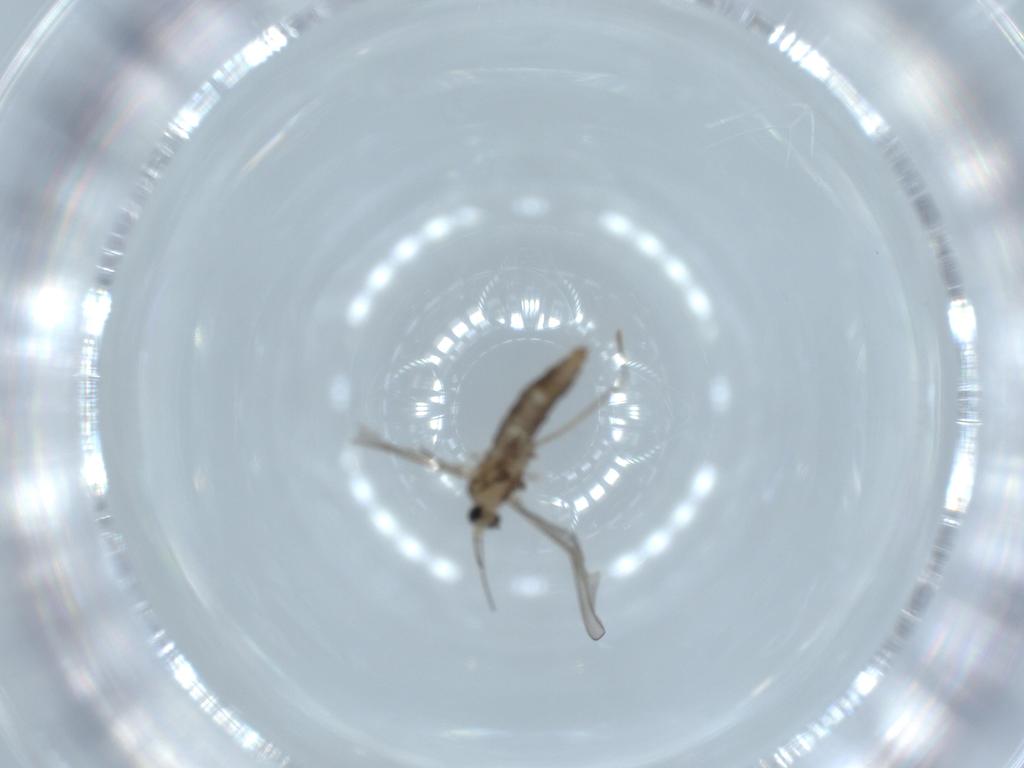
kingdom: Animalia
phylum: Arthropoda
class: Insecta
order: Diptera
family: Cecidomyiidae
